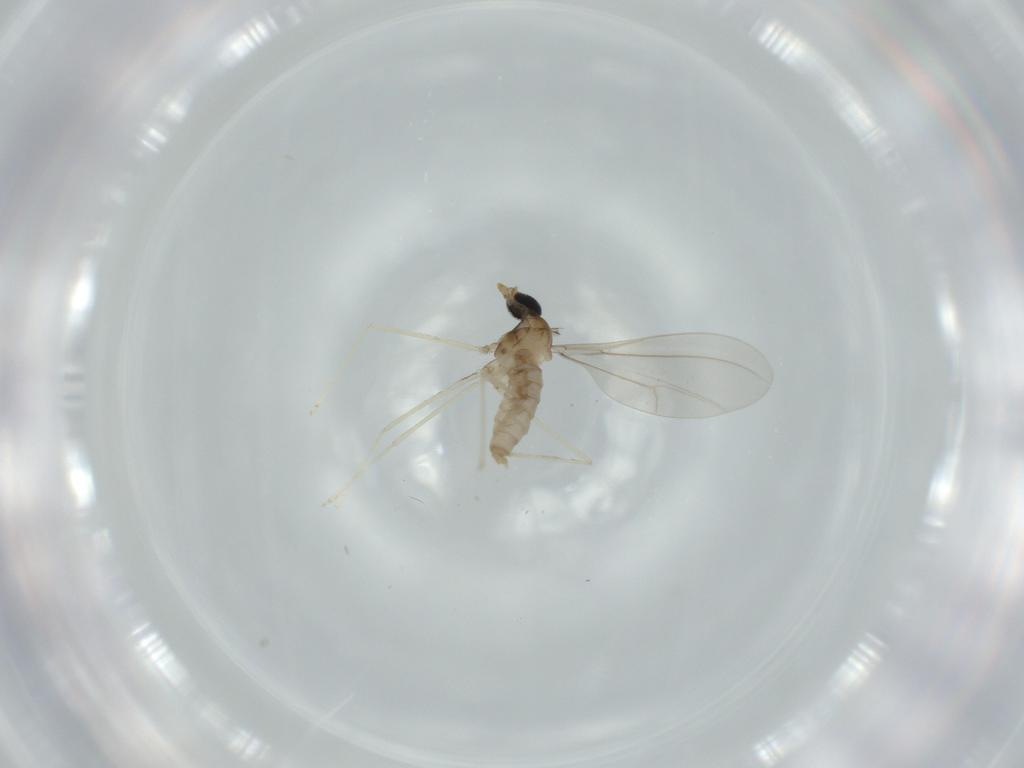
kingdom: Animalia
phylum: Arthropoda
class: Insecta
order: Diptera
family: Cecidomyiidae
